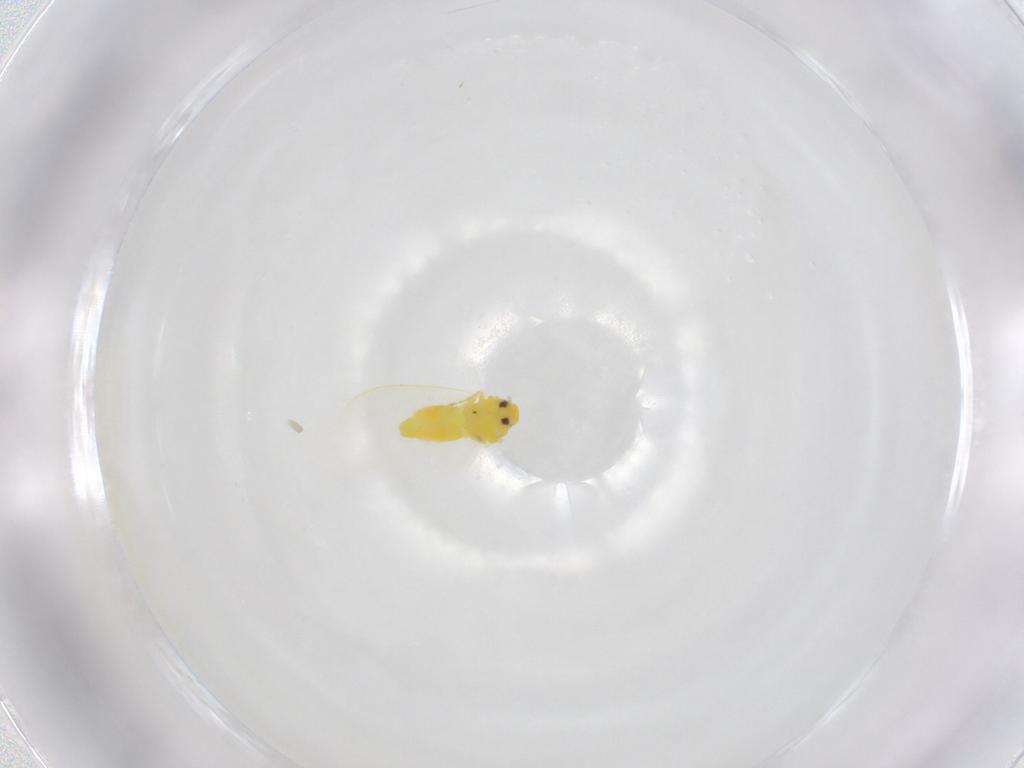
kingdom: Animalia
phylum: Arthropoda
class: Insecta
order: Hemiptera
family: Aleyrodidae
